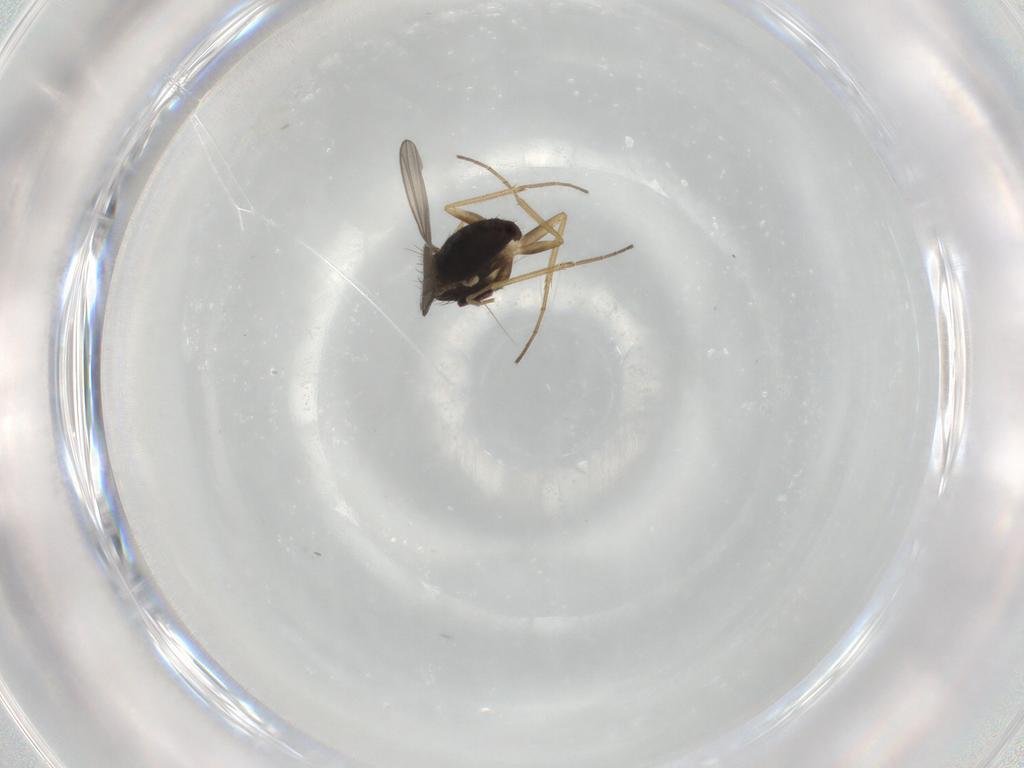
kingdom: Animalia
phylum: Arthropoda
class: Insecta
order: Diptera
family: Dolichopodidae
